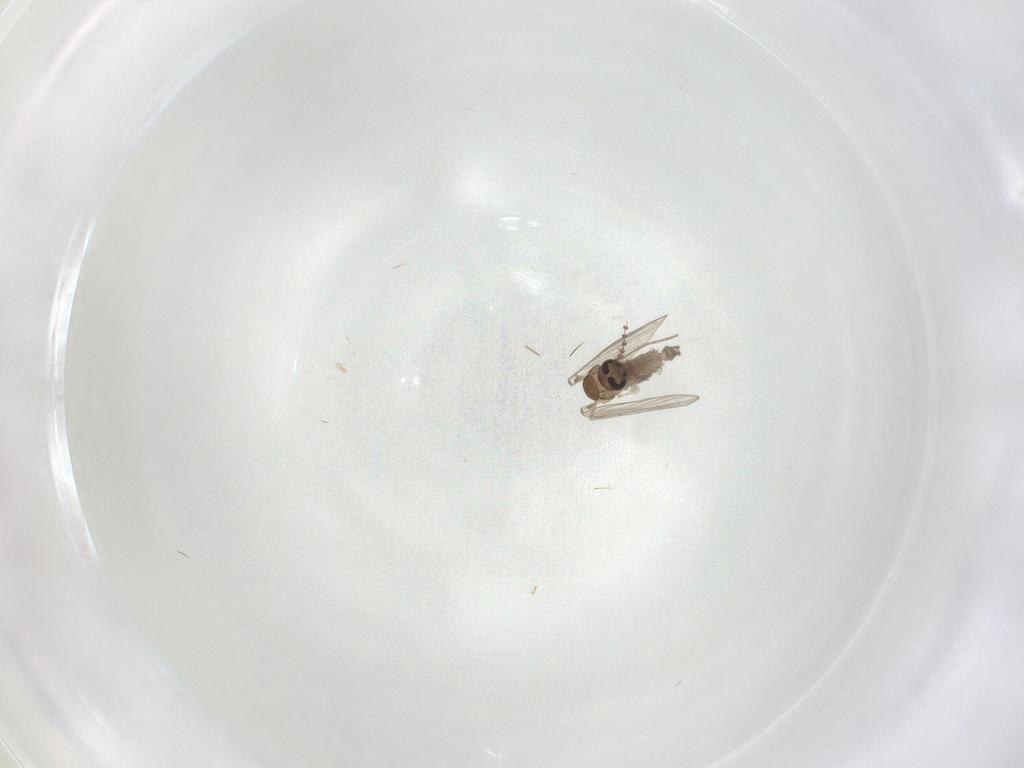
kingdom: Animalia
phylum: Arthropoda
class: Insecta
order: Diptera
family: Psychodidae
